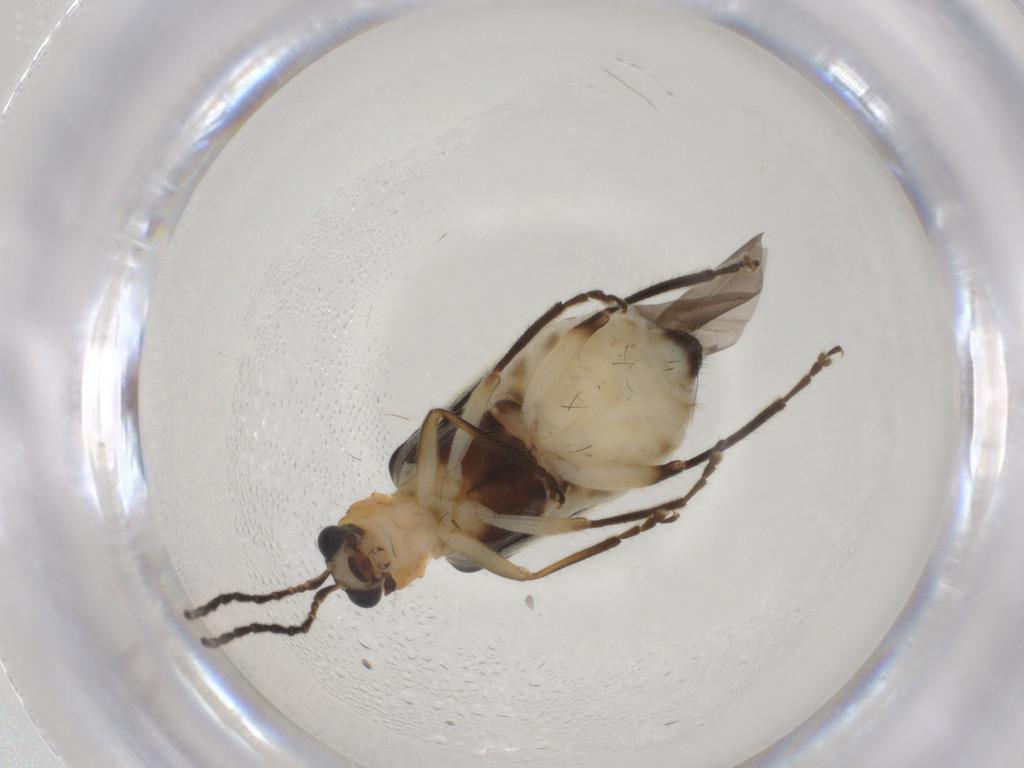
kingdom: Animalia
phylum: Arthropoda
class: Insecta
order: Coleoptera
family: Chrysomelidae
